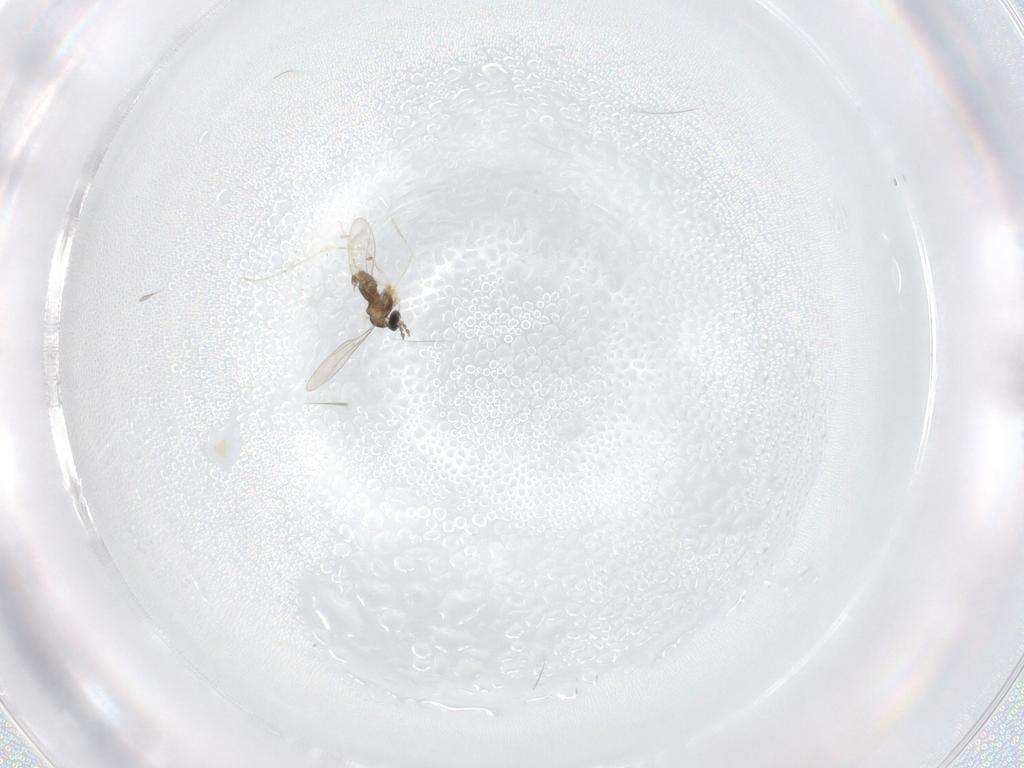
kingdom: Animalia
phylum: Arthropoda
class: Insecta
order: Diptera
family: Cecidomyiidae
